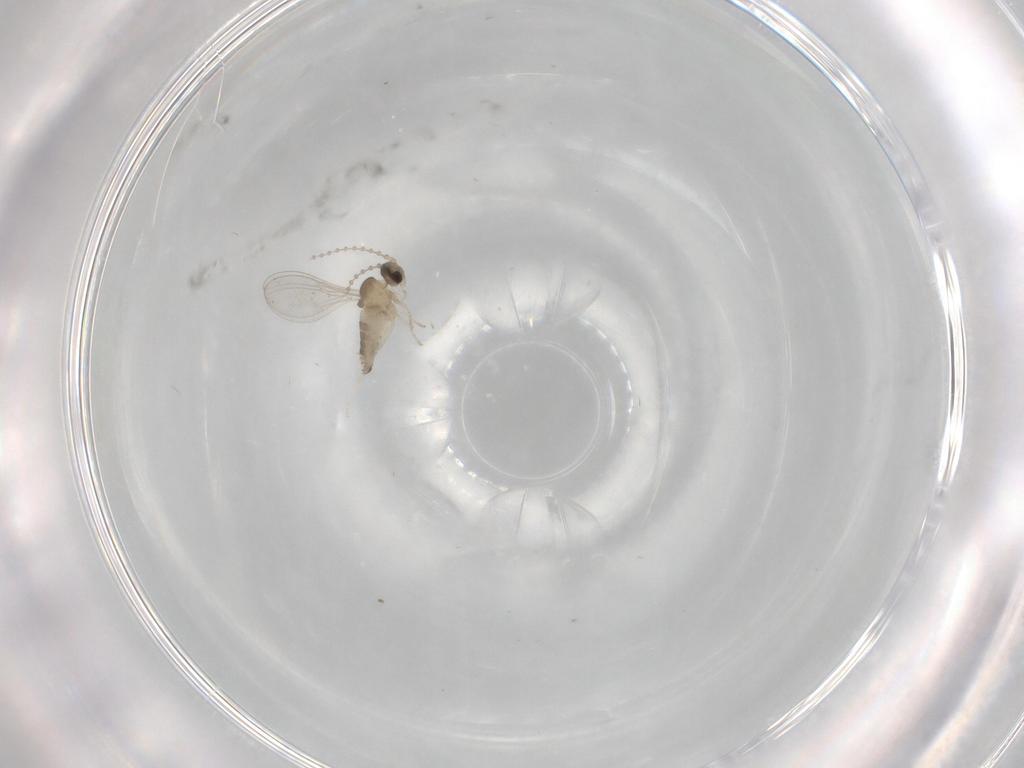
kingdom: Animalia
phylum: Arthropoda
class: Insecta
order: Diptera
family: Cecidomyiidae
